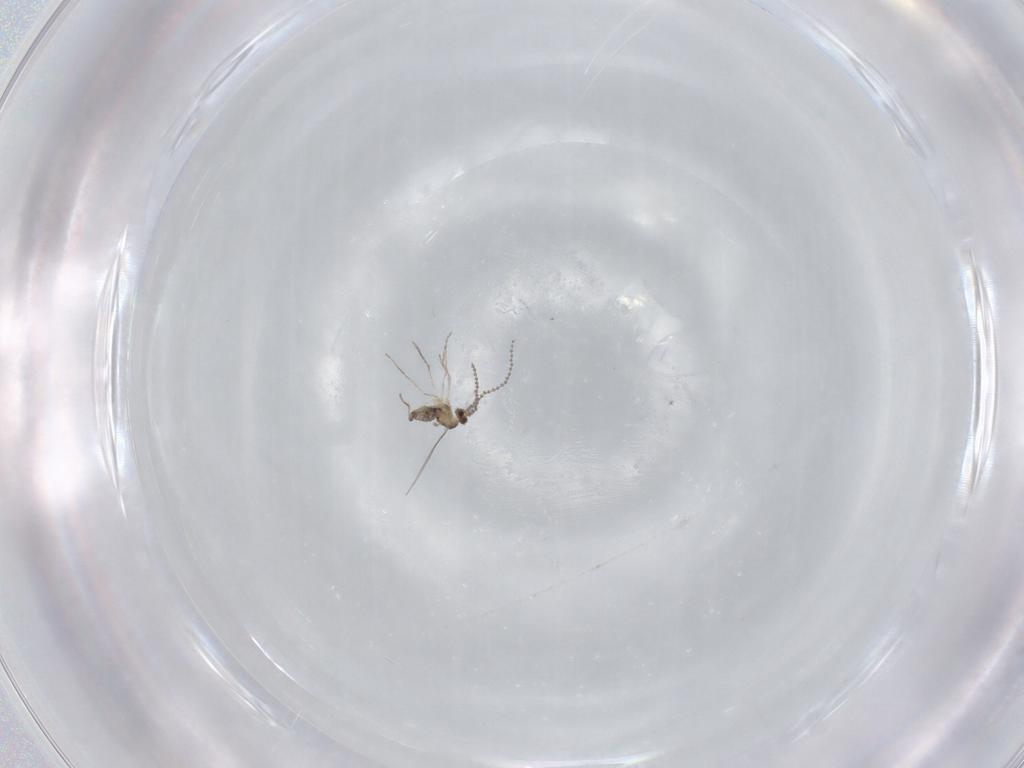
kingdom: Animalia
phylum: Arthropoda
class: Insecta
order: Diptera
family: Cecidomyiidae
